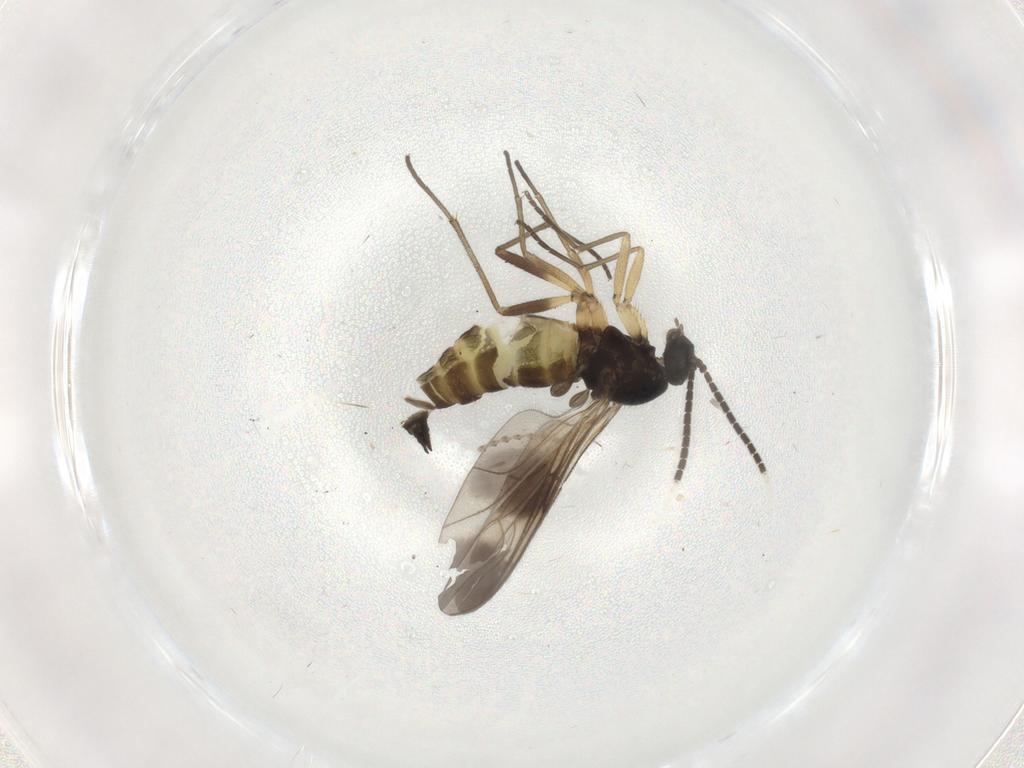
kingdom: Animalia
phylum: Arthropoda
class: Insecta
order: Diptera
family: Sciaridae
